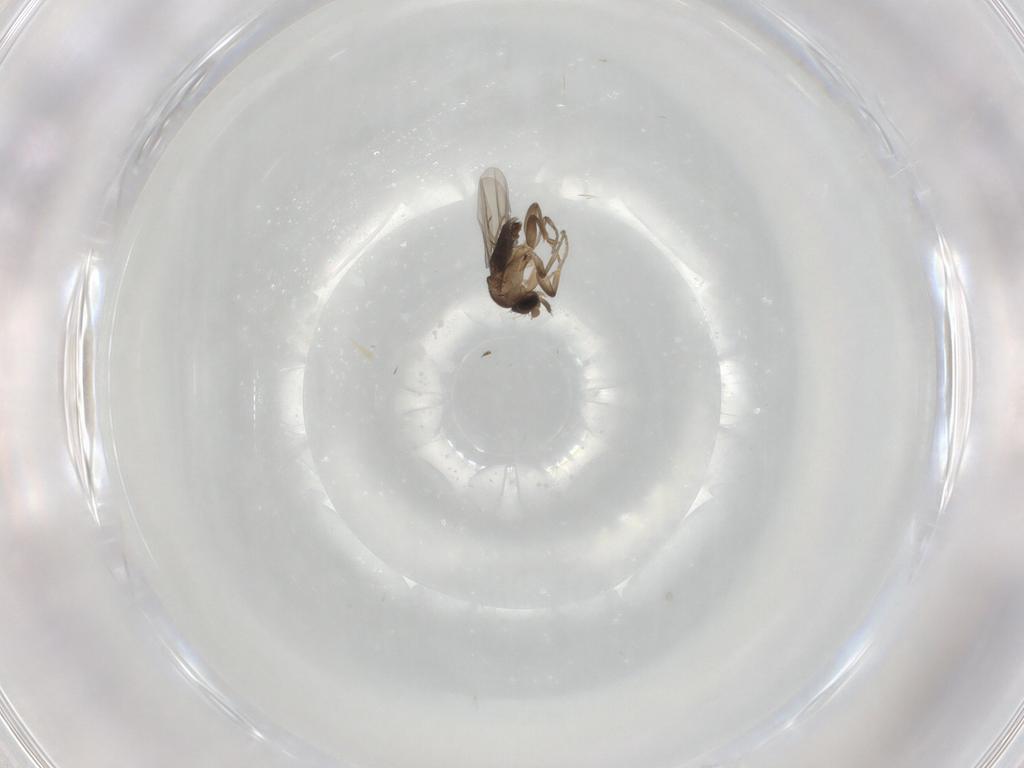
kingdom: Animalia
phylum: Arthropoda
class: Insecta
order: Diptera
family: Phoridae
